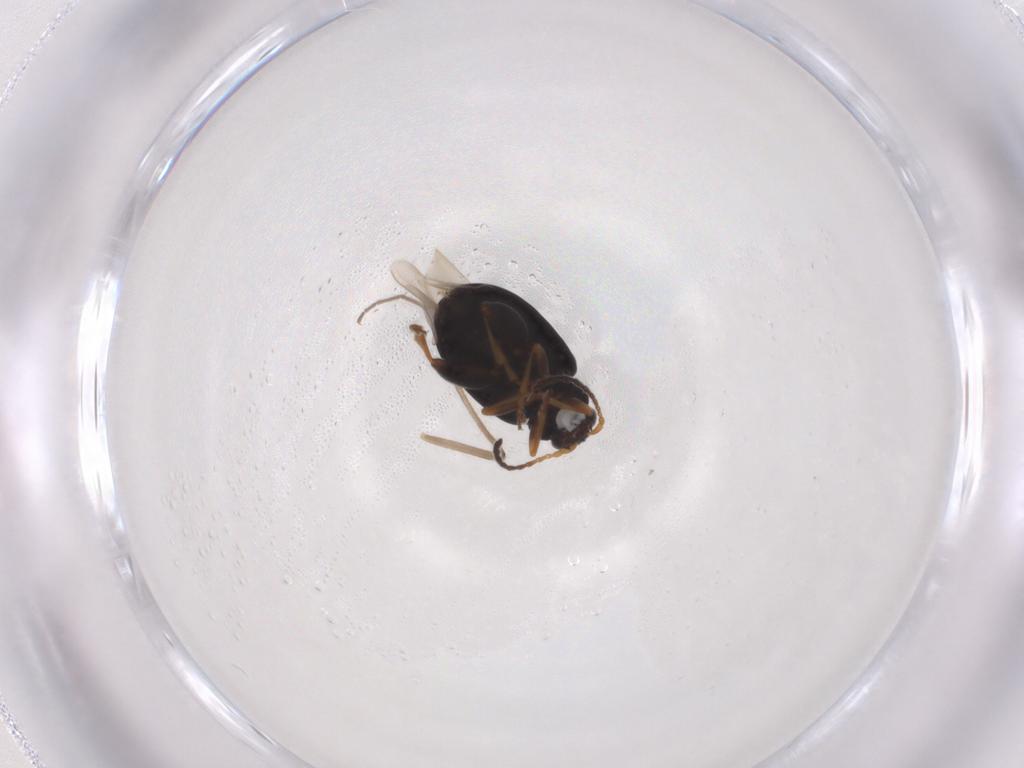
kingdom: Animalia
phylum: Arthropoda
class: Insecta
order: Coleoptera
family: Chrysomelidae
